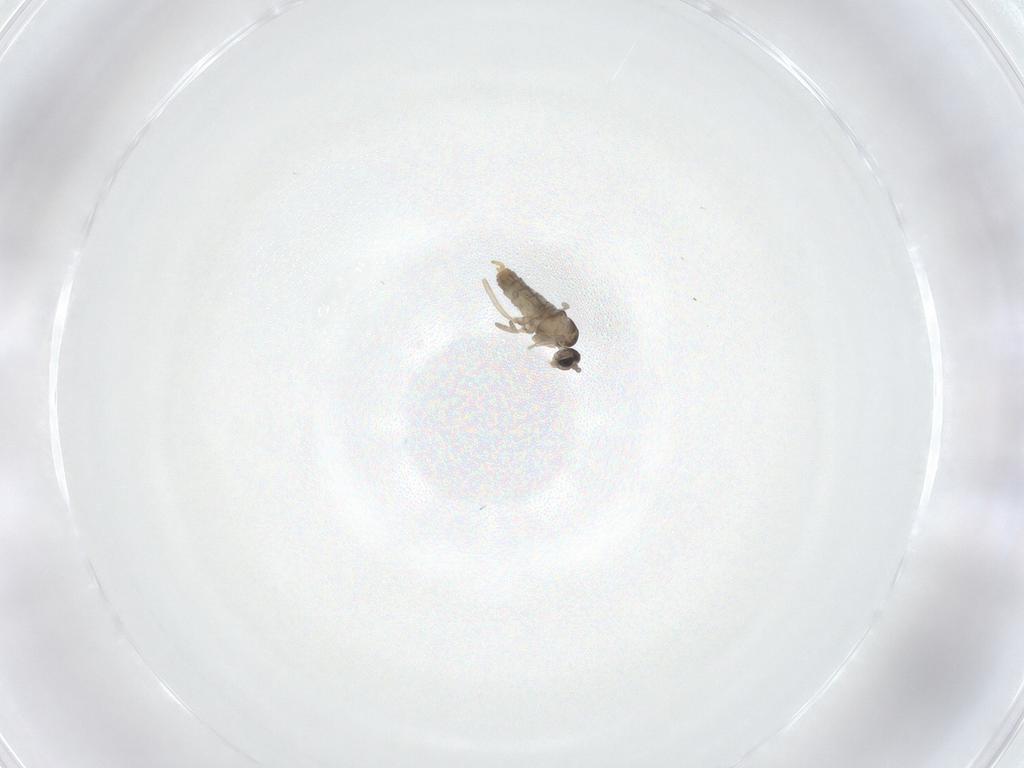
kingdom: Animalia
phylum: Arthropoda
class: Insecta
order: Diptera
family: Cecidomyiidae
